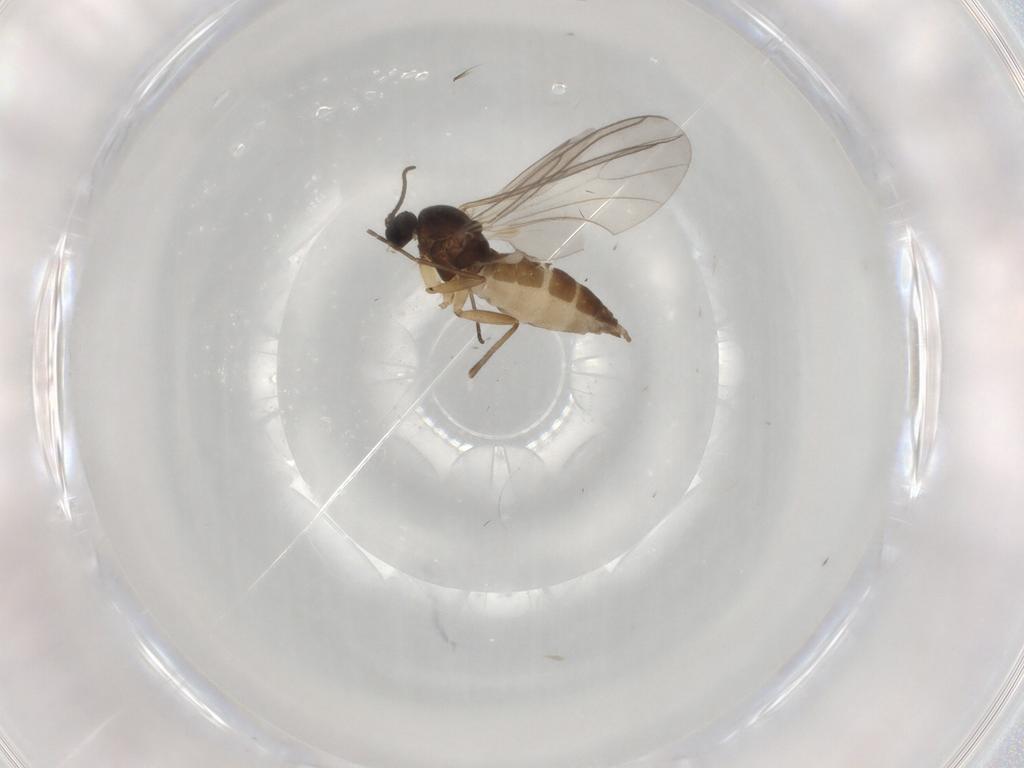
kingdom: Animalia
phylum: Arthropoda
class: Insecta
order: Diptera
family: Sciaridae
